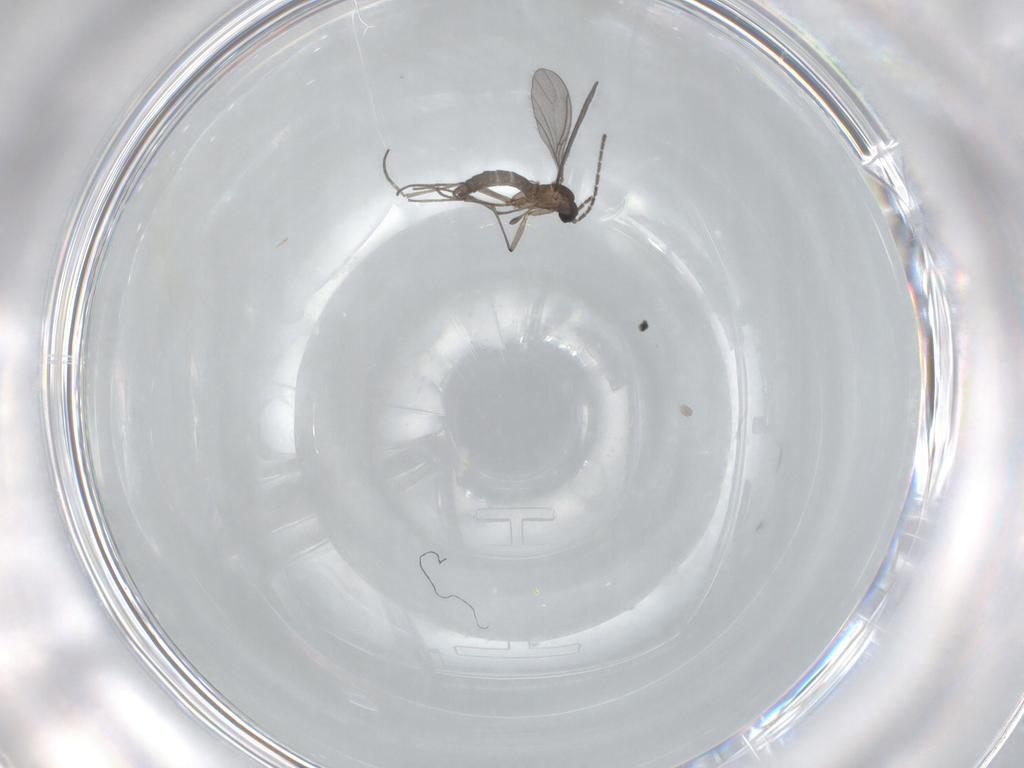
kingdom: Animalia
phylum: Arthropoda
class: Insecta
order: Diptera
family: Sciaridae
